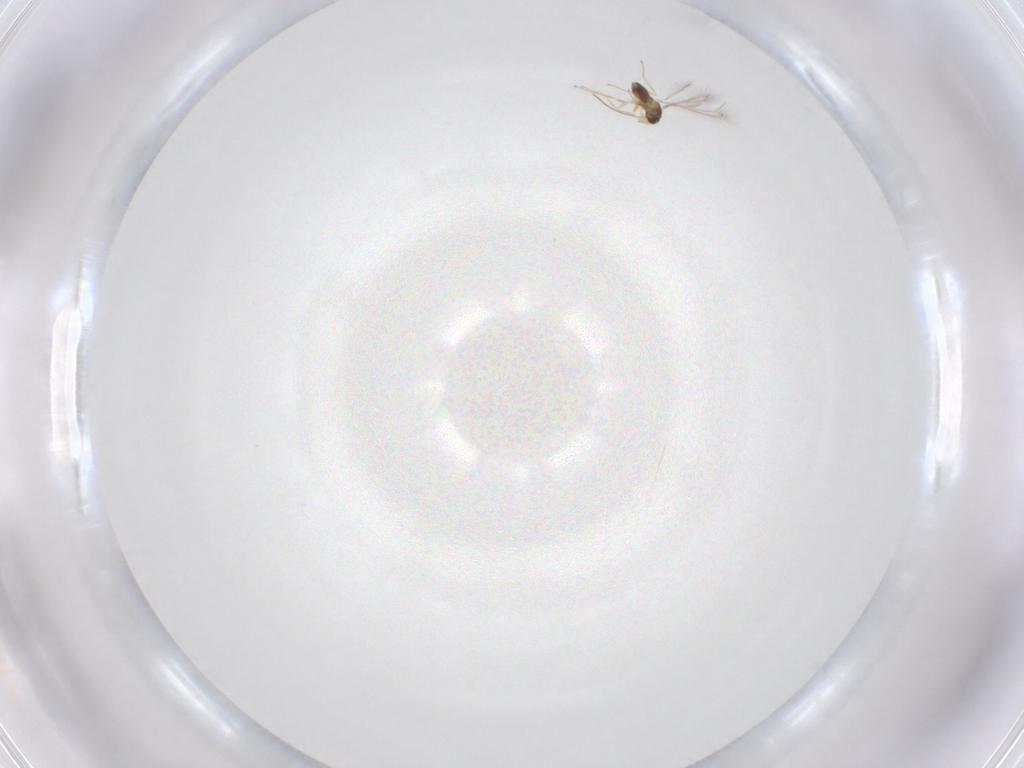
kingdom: Animalia
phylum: Arthropoda
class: Insecta
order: Hymenoptera
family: Mymaridae
